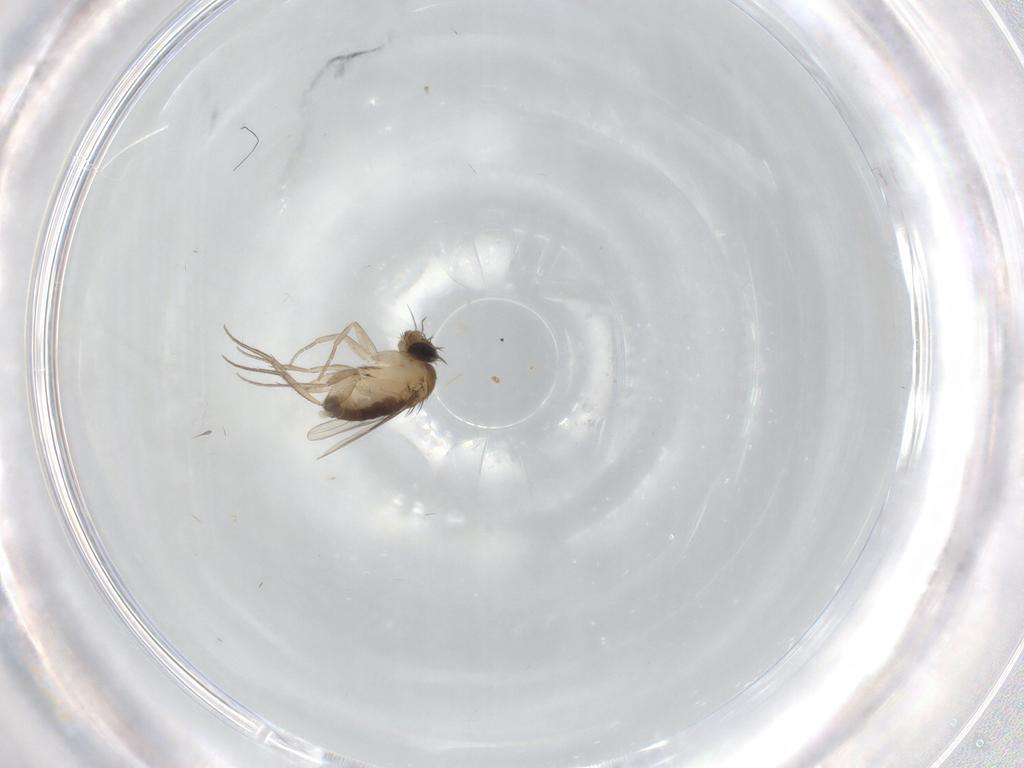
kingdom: Animalia
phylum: Arthropoda
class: Insecta
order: Diptera
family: Phoridae
